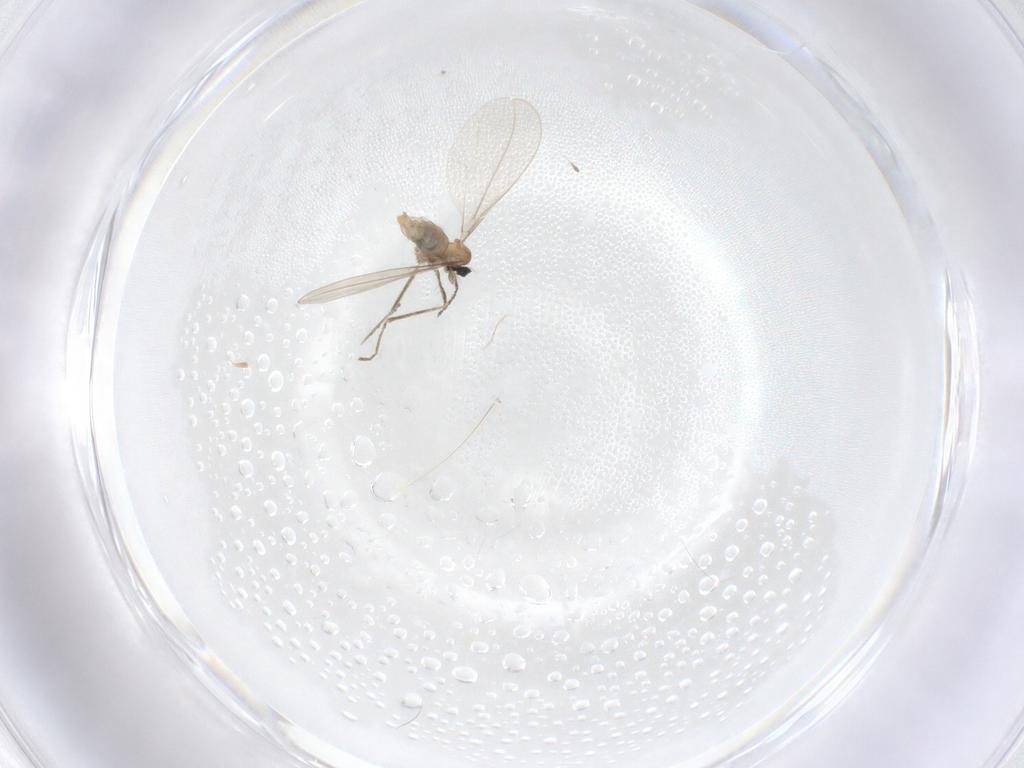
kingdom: Animalia
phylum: Arthropoda
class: Insecta
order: Diptera
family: Cecidomyiidae
